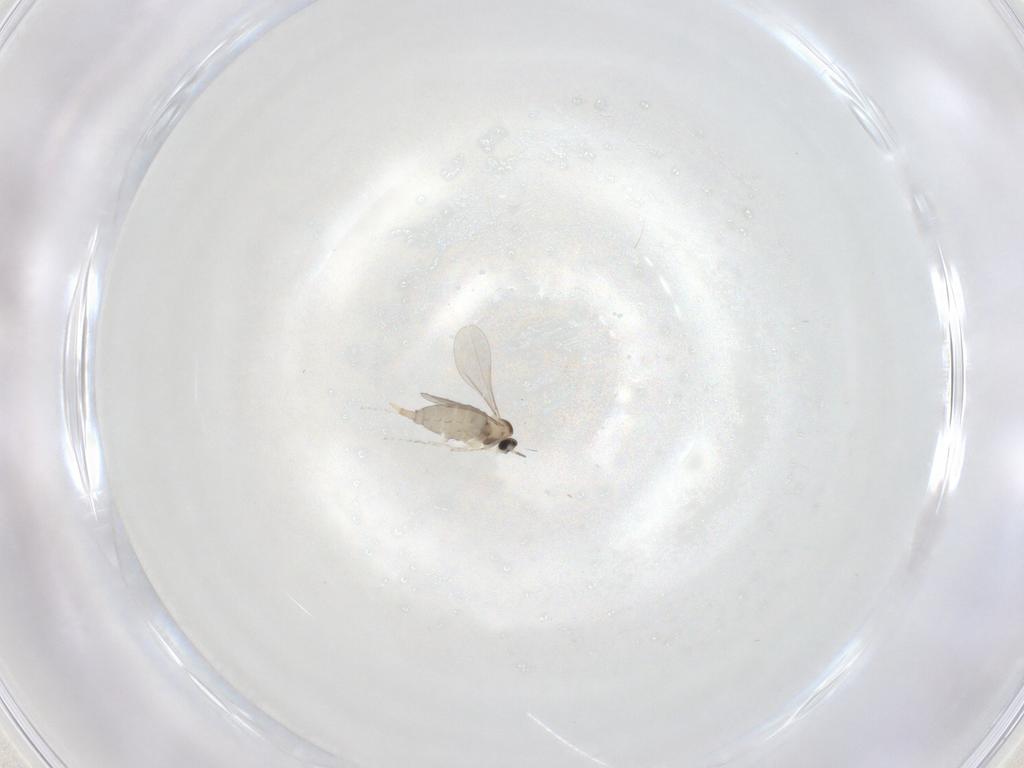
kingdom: Animalia
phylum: Arthropoda
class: Insecta
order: Diptera
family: Cecidomyiidae
